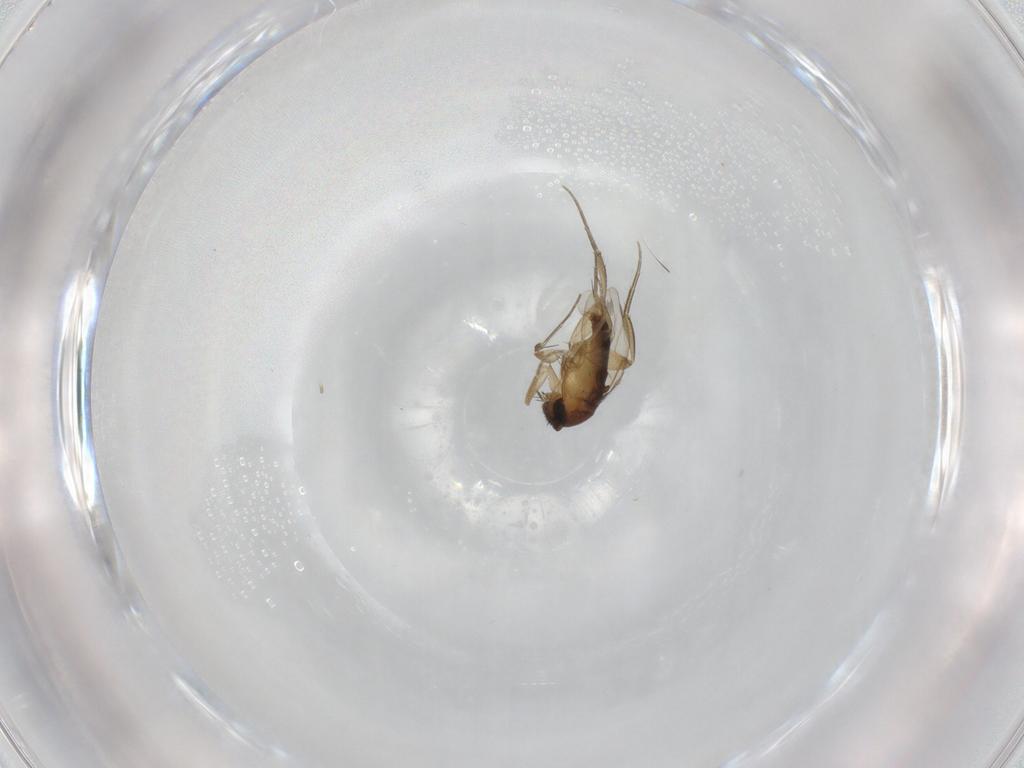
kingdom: Animalia
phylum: Arthropoda
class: Insecta
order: Diptera
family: Phoridae
